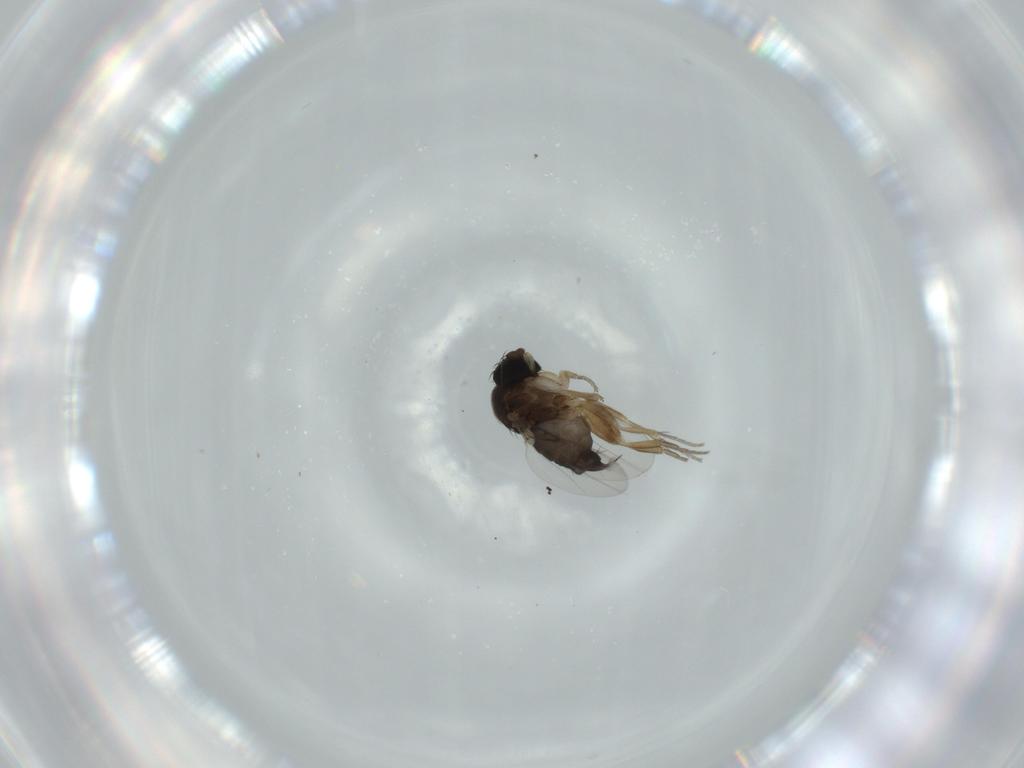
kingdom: Animalia
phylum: Arthropoda
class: Insecta
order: Diptera
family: Phoridae
